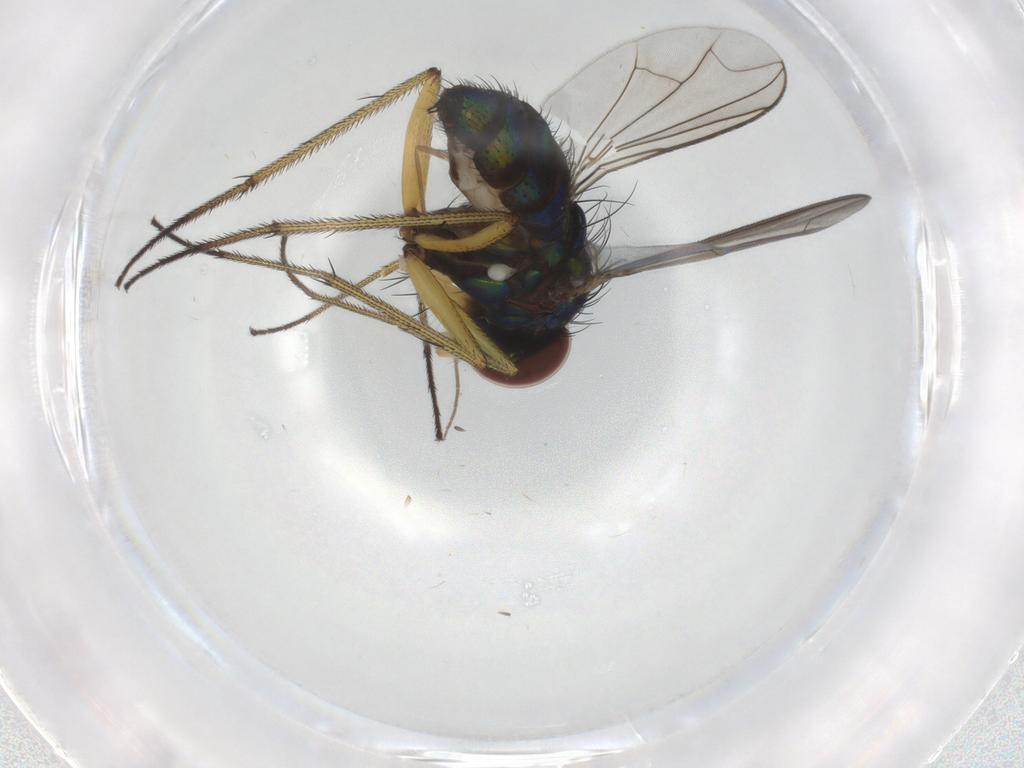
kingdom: Animalia
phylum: Arthropoda
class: Insecta
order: Diptera
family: Dolichopodidae
